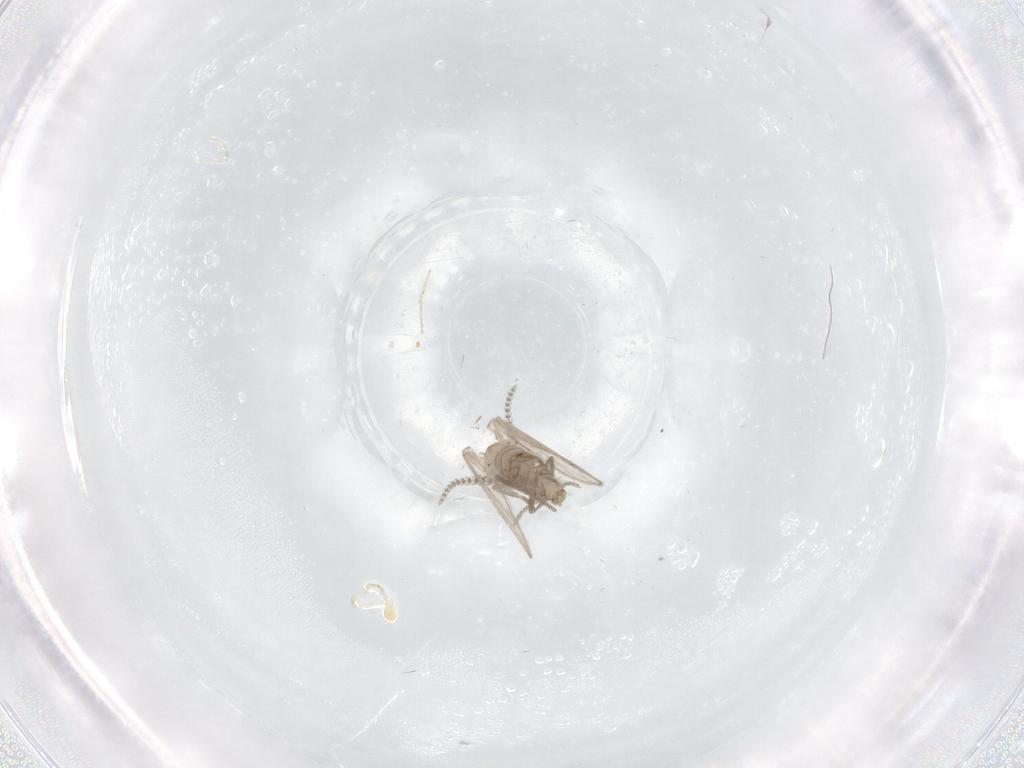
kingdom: Animalia
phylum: Arthropoda
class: Insecta
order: Diptera
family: Psychodidae
